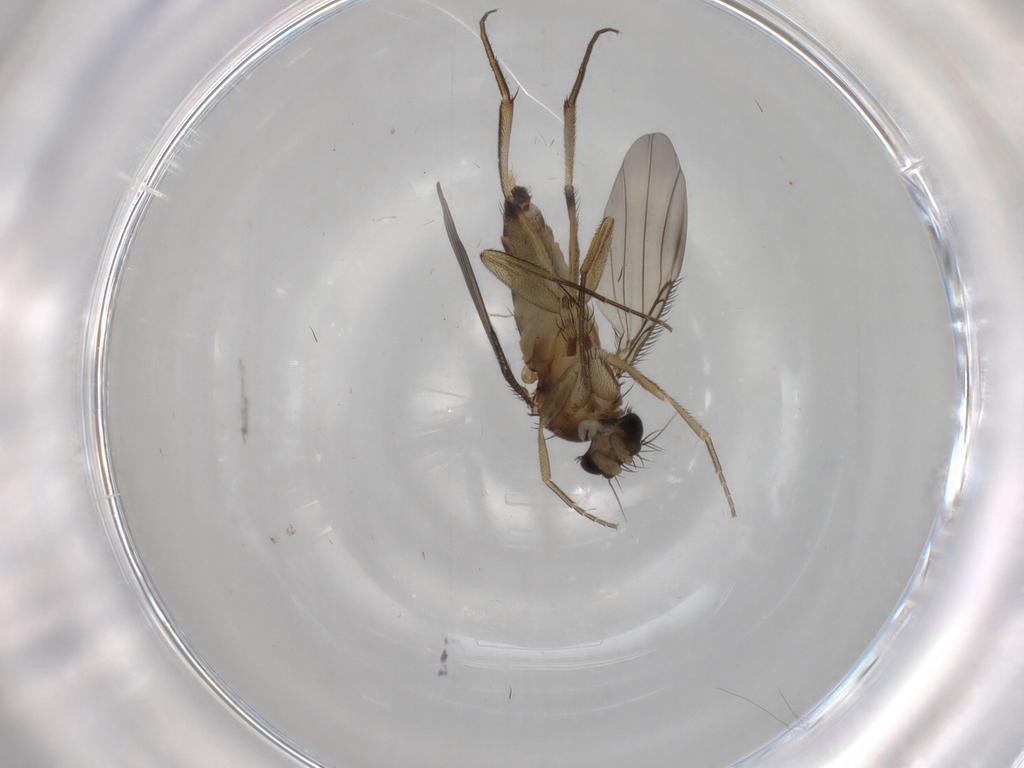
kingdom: Animalia
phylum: Arthropoda
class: Insecta
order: Diptera
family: Phoridae
